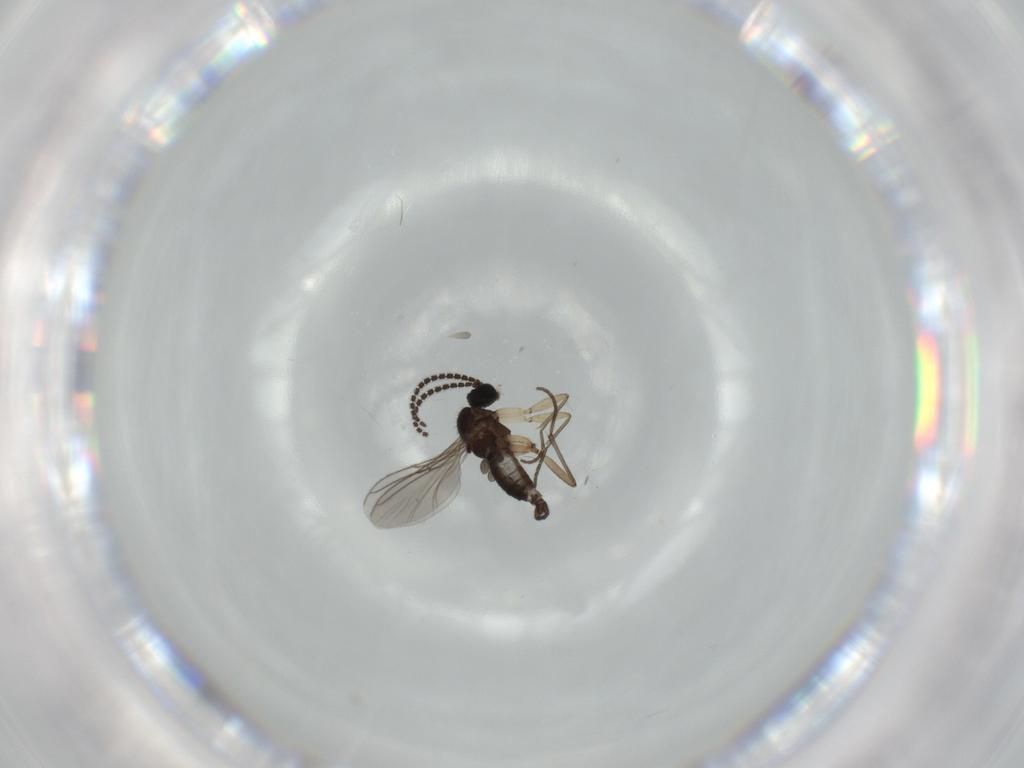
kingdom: Animalia
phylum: Arthropoda
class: Insecta
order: Diptera
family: Sciaridae
